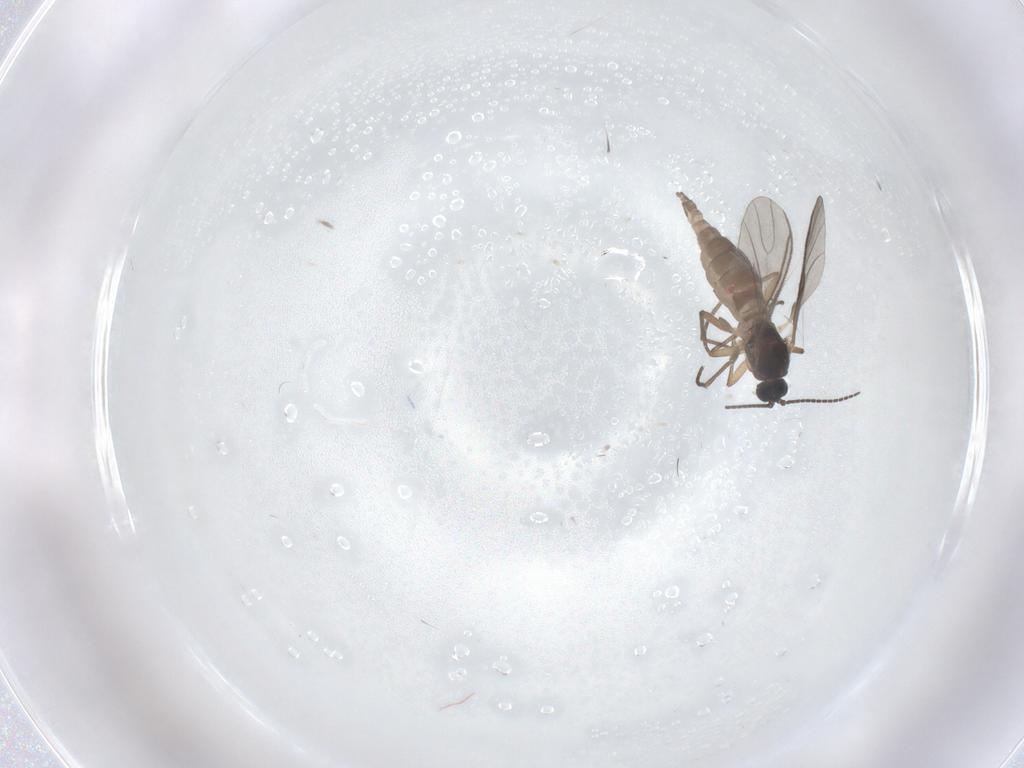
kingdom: Animalia
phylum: Arthropoda
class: Insecta
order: Diptera
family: Sciaridae
